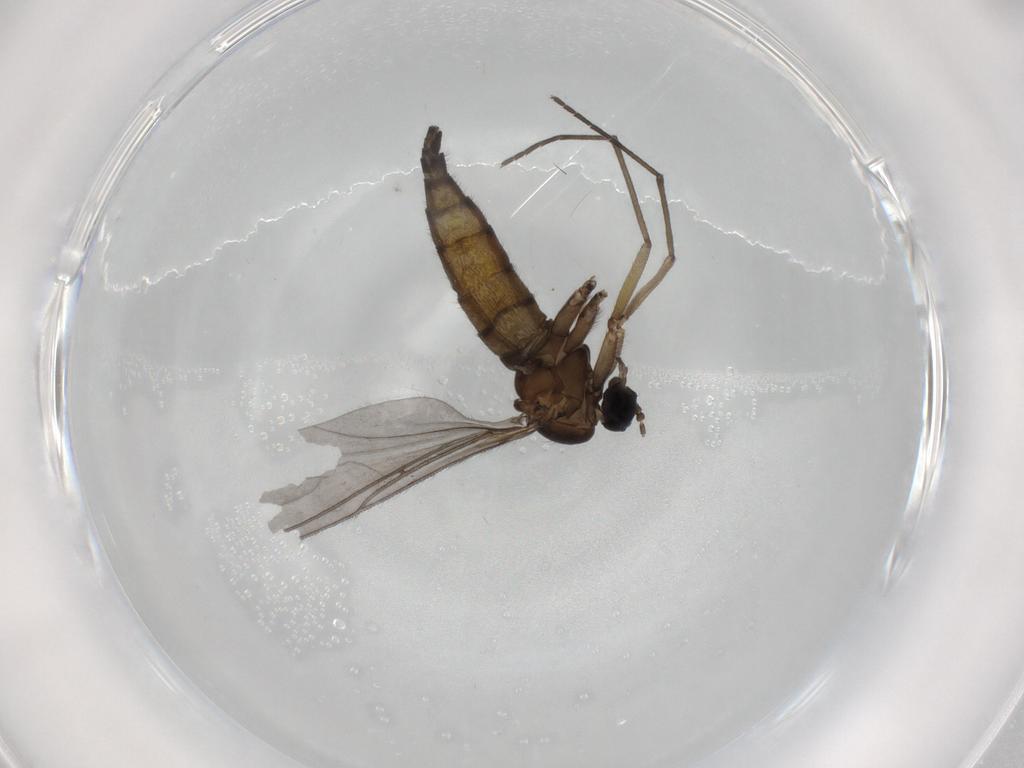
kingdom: Animalia
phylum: Arthropoda
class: Insecta
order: Diptera
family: Sciaridae
